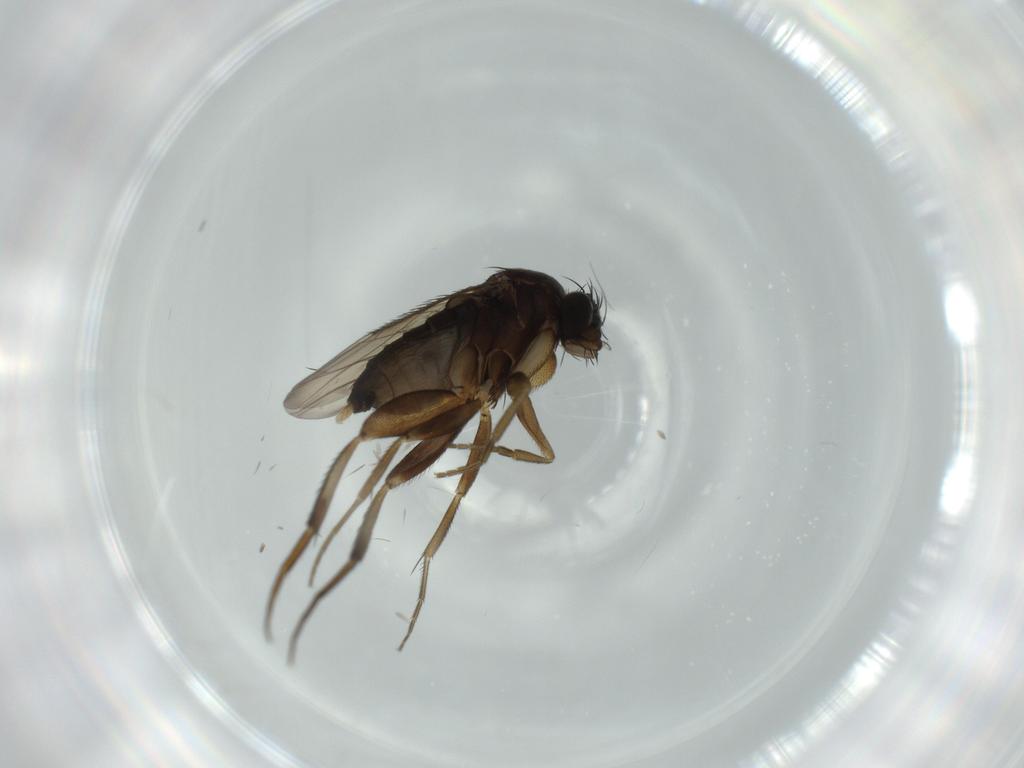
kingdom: Animalia
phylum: Arthropoda
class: Insecta
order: Diptera
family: Phoridae
